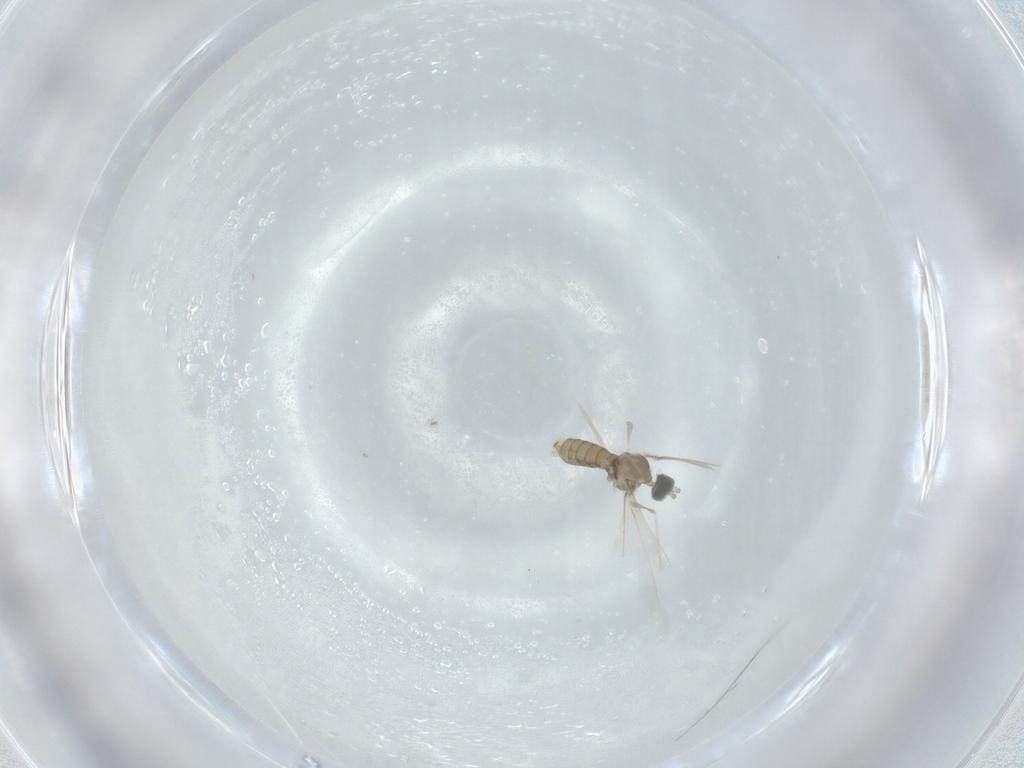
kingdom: Animalia
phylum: Arthropoda
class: Insecta
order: Diptera
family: Cecidomyiidae
